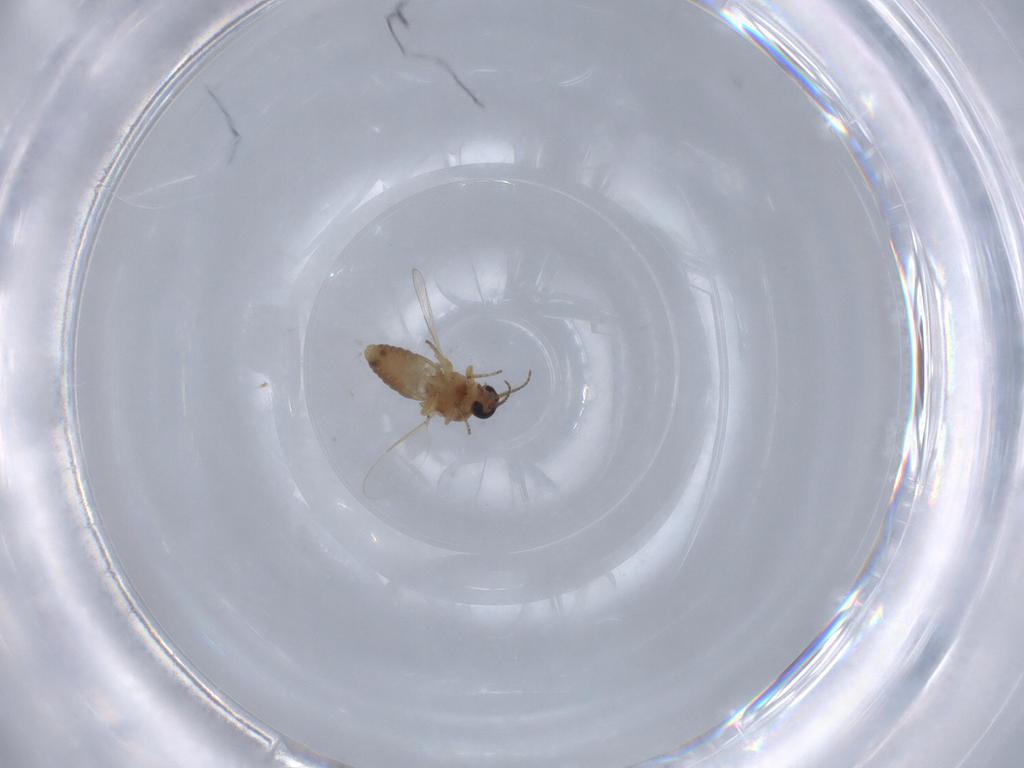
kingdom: Animalia
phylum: Arthropoda
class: Insecta
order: Diptera
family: Ceratopogonidae
